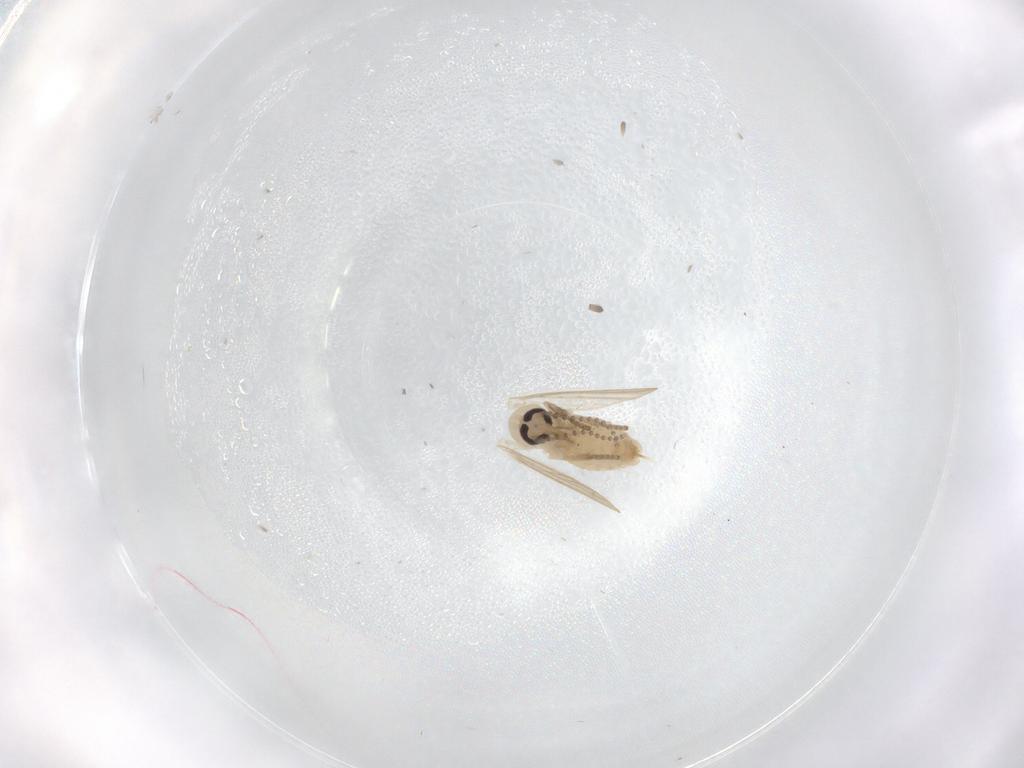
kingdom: Animalia
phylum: Arthropoda
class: Insecta
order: Diptera
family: Psychodidae
